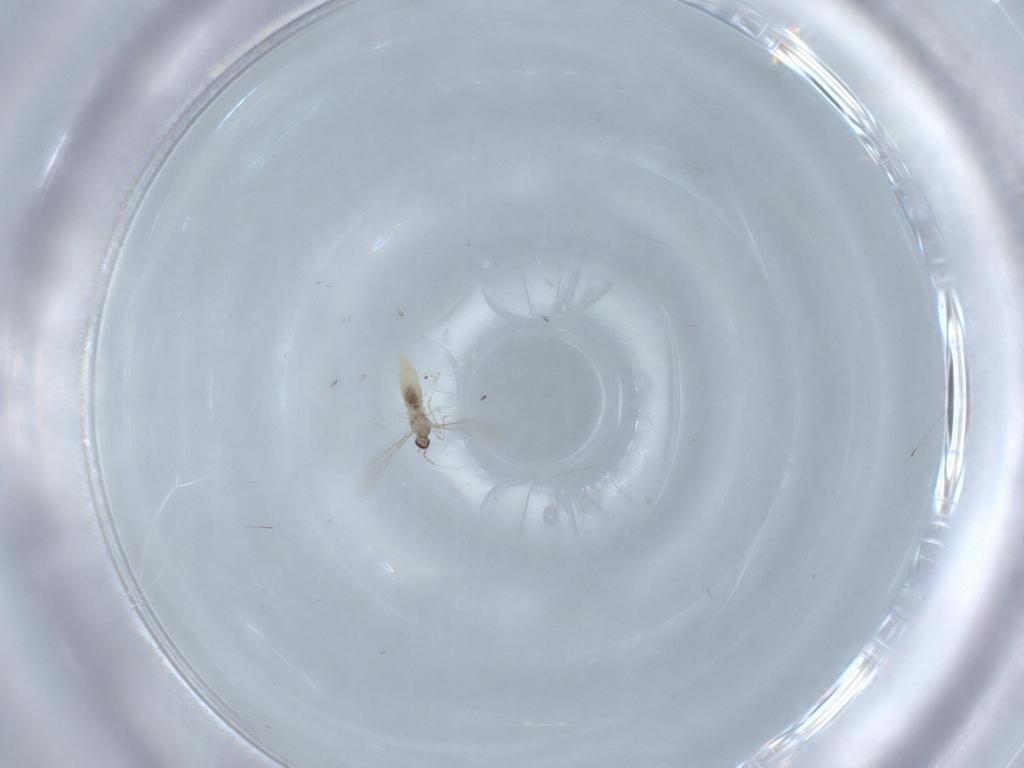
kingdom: Animalia
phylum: Arthropoda
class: Insecta
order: Diptera
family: Cecidomyiidae
